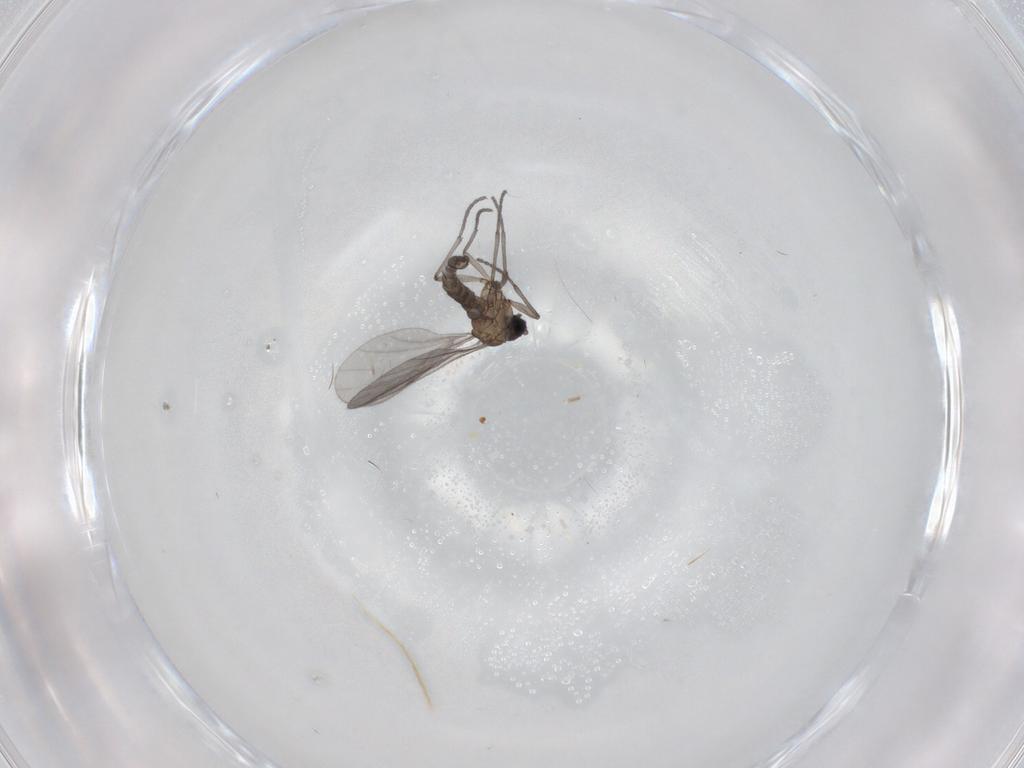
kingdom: Animalia
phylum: Arthropoda
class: Insecta
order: Diptera
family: Sciaridae
